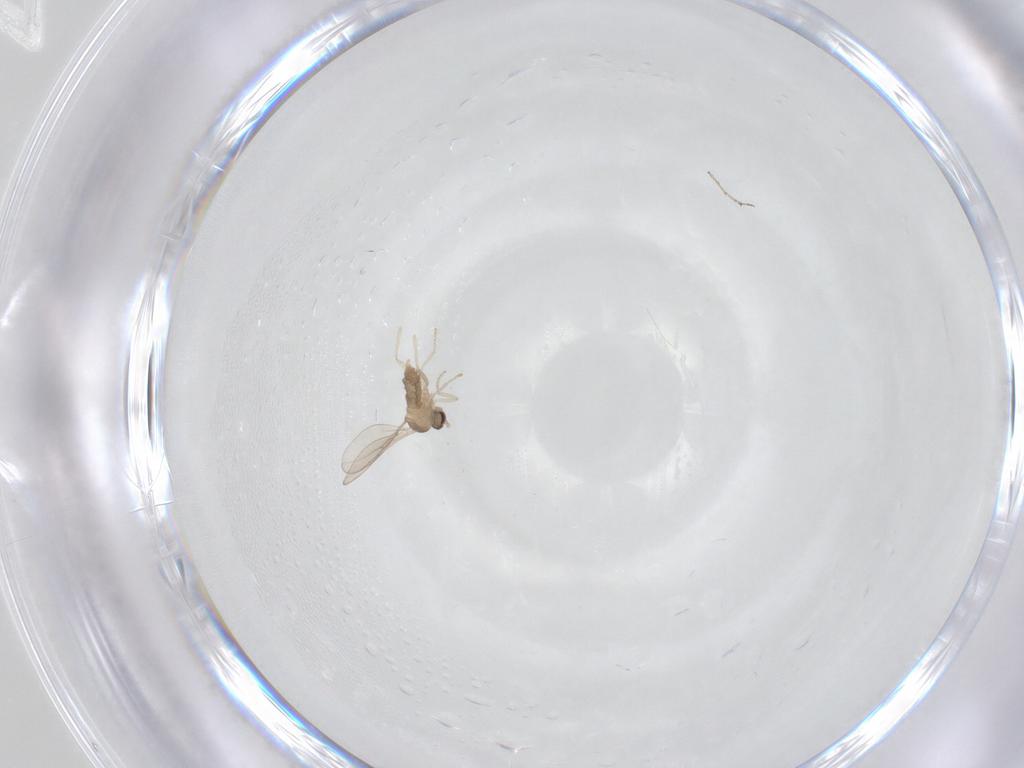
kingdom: Animalia
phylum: Arthropoda
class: Insecta
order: Diptera
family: Cecidomyiidae
